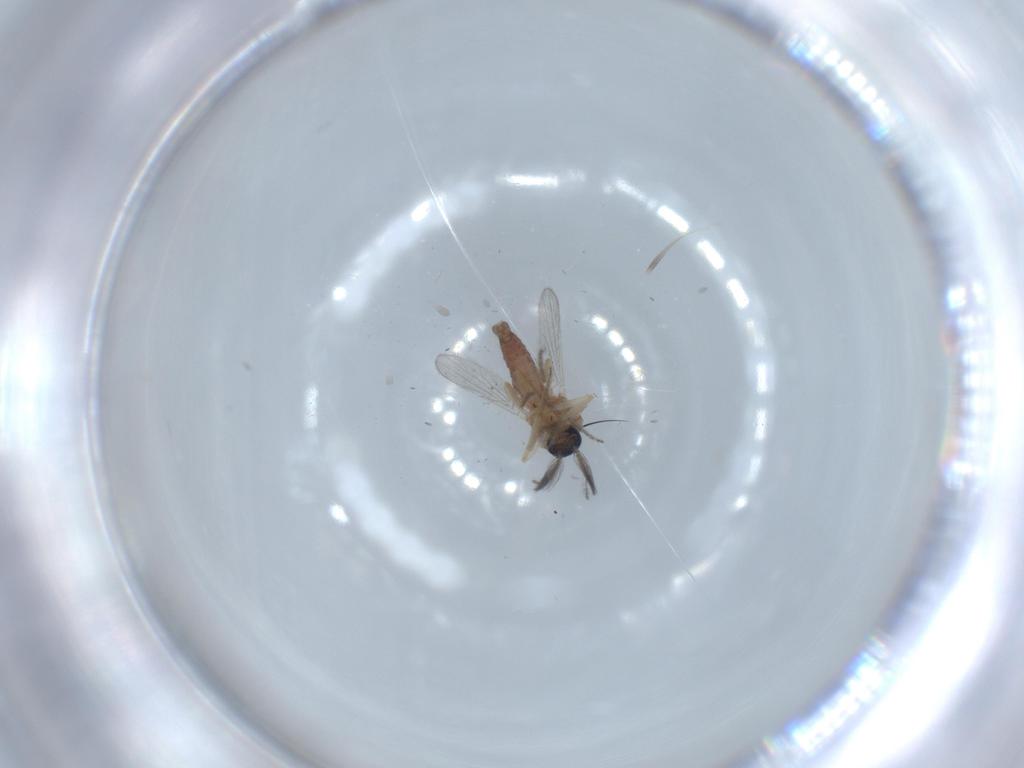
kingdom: Animalia
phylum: Arthropoda
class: Insecta
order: Diptera
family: Ceratopogonidae
